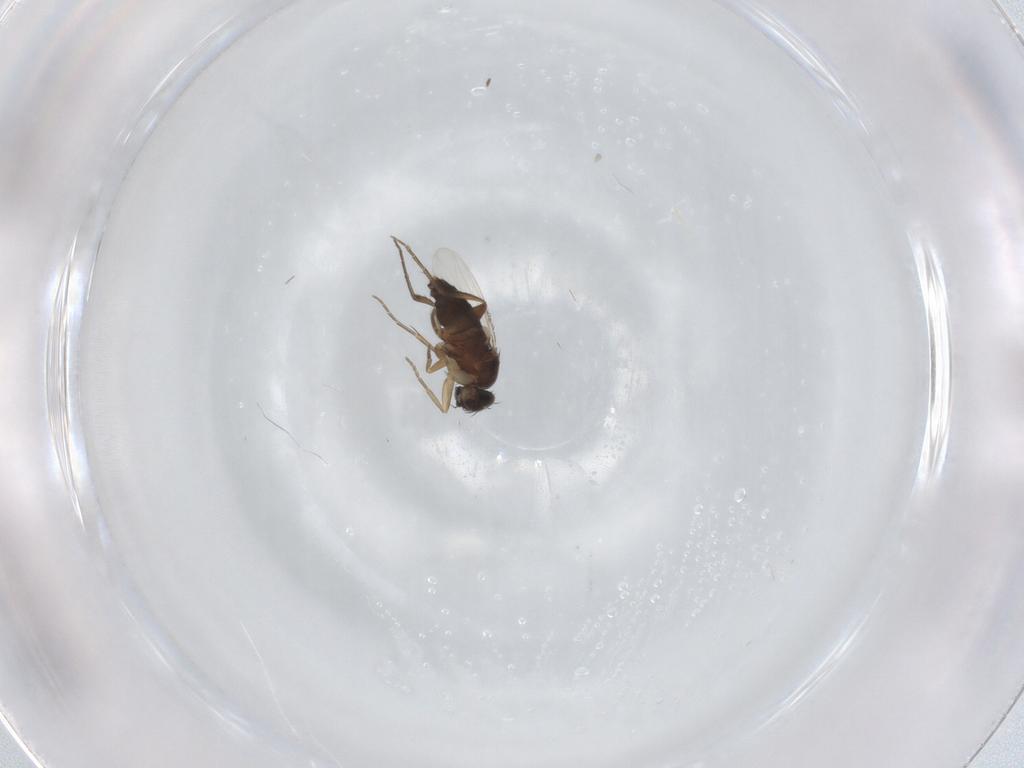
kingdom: Animalia
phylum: Arthropoda
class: Insecta
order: Diptera
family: Phoridae
